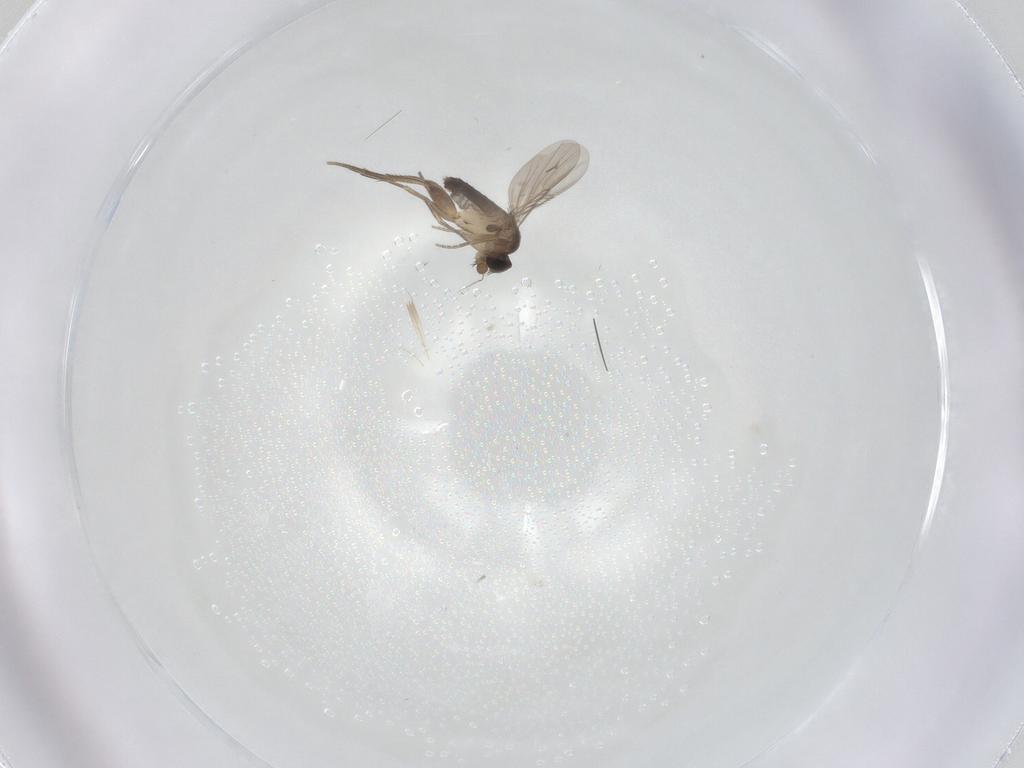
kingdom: Animalia
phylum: Arthropoda
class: Insecta
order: Diptera
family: Phoridae
